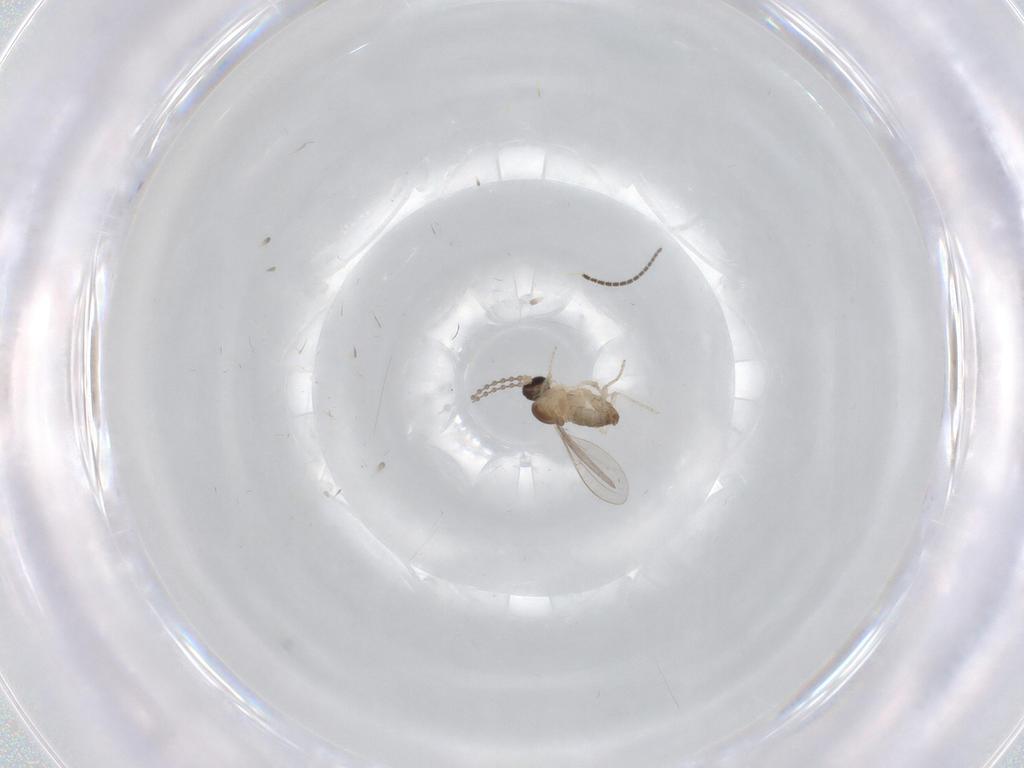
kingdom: Animalia
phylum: Arthropoda
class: Insecta
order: Diptera
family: Cecidomyiidae
